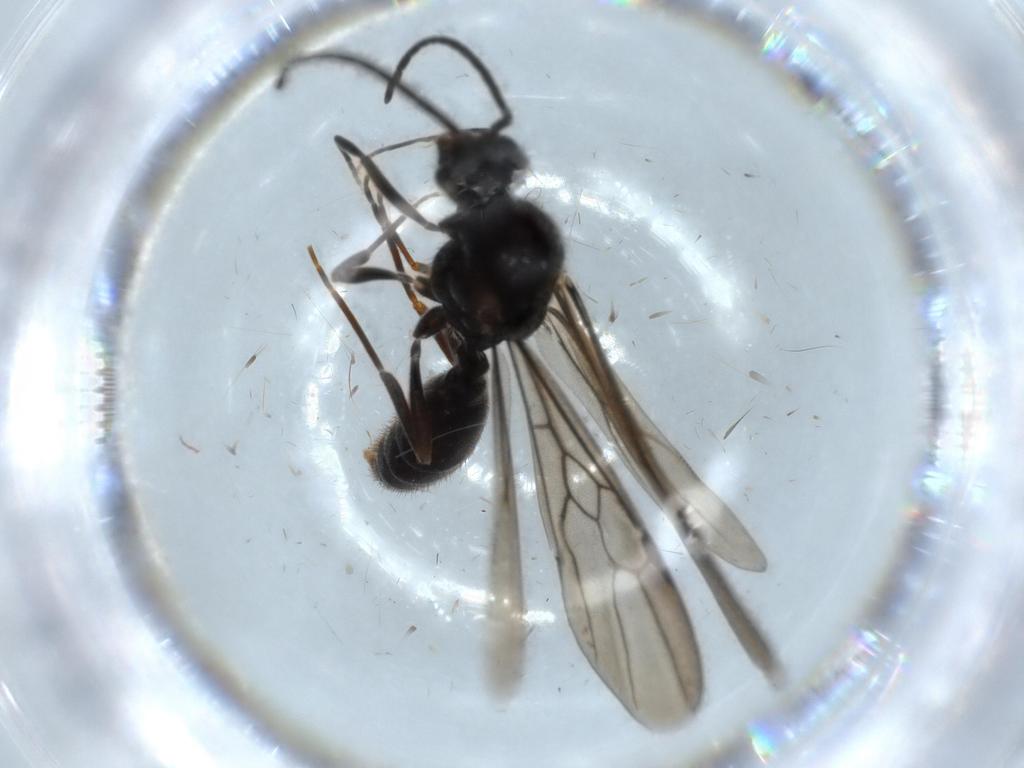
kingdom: Animalia
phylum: Arthropoda
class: Insecta
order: Hymenoptera
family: Formicidae
